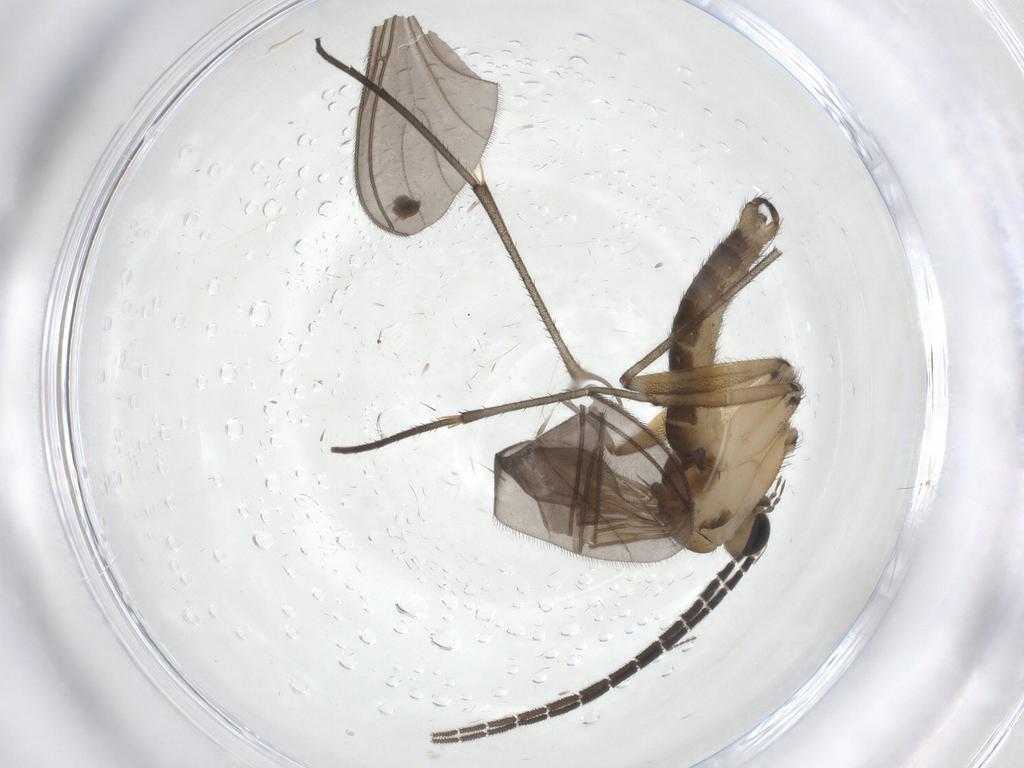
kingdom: Animalia
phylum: Arthropoda
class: Insecta
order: Diptera
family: Sciaridae
